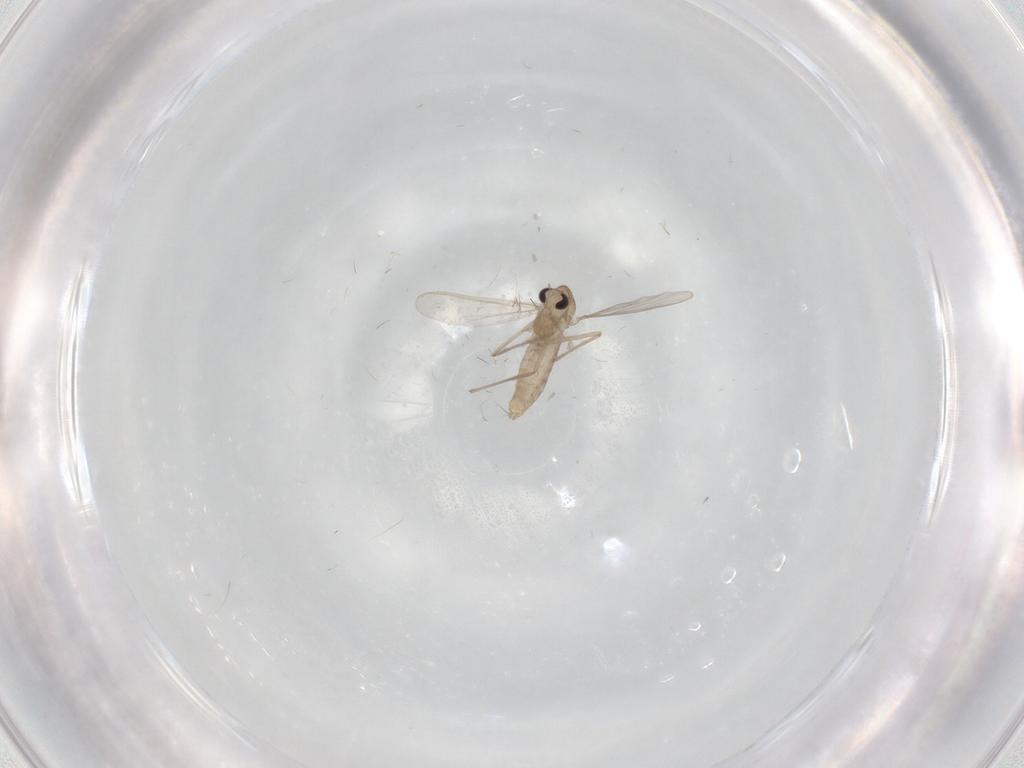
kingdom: Animalia
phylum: Arthropoda
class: Insecta
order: Diptera
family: Chironomidae
